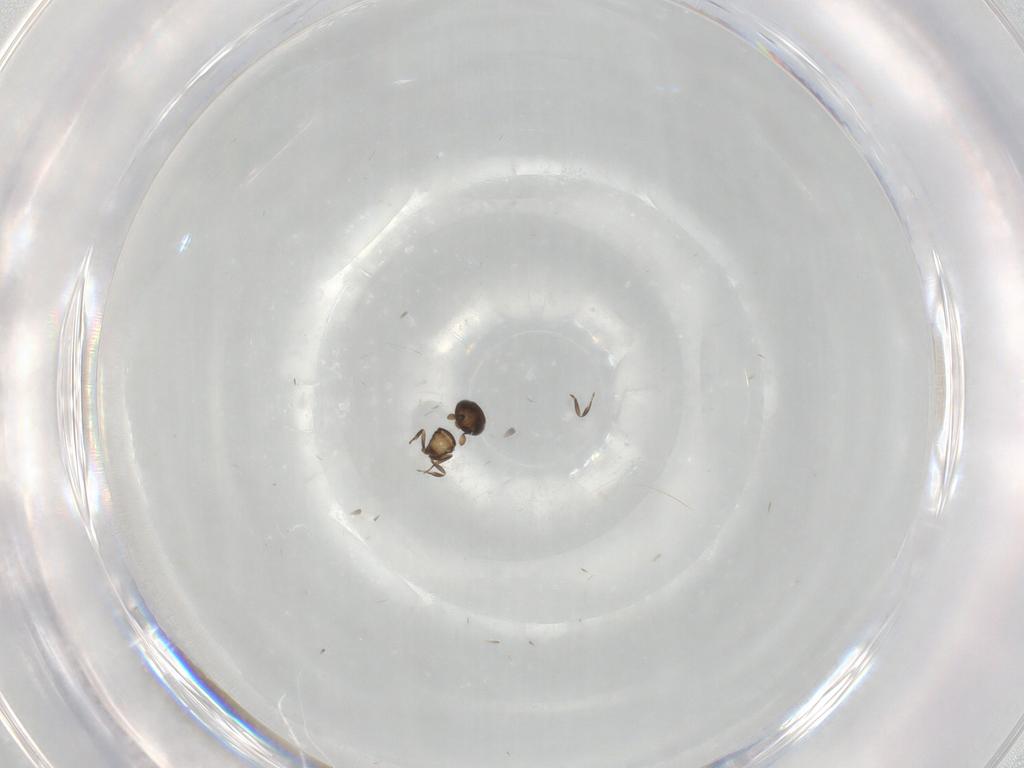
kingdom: Animalia
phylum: Arthropoda
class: Insecta
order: Hymenoptera
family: Scelionidae
